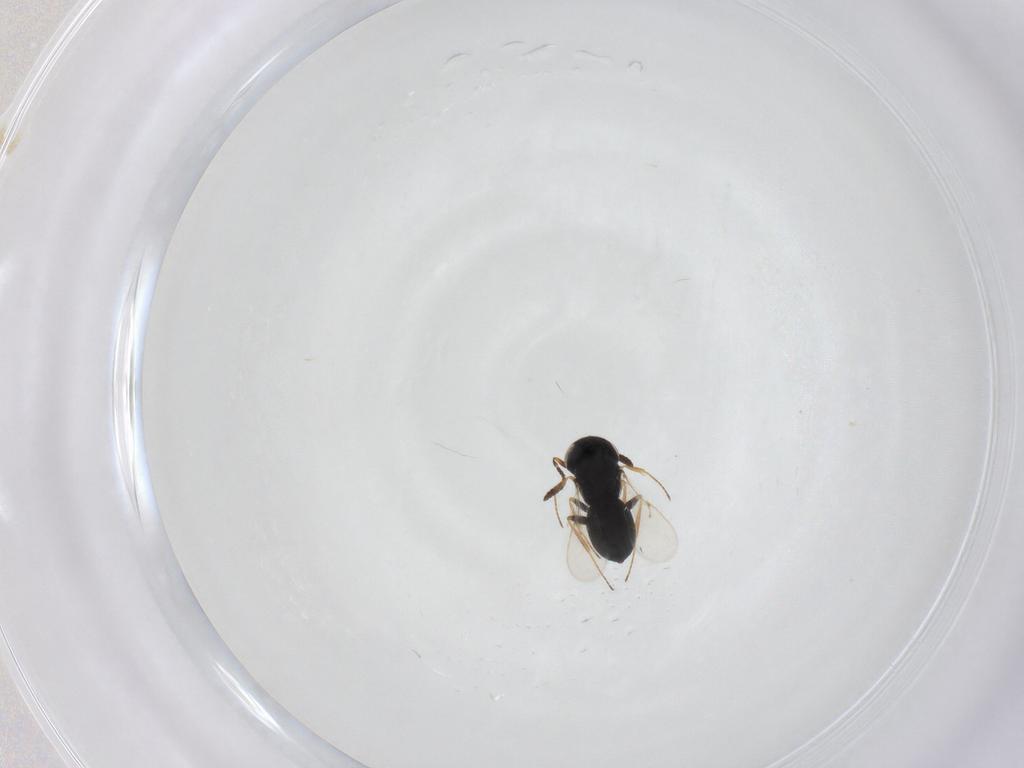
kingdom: Animalia
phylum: Arthropoda
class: Insecta
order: Hymenoptera
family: Scelionidae
